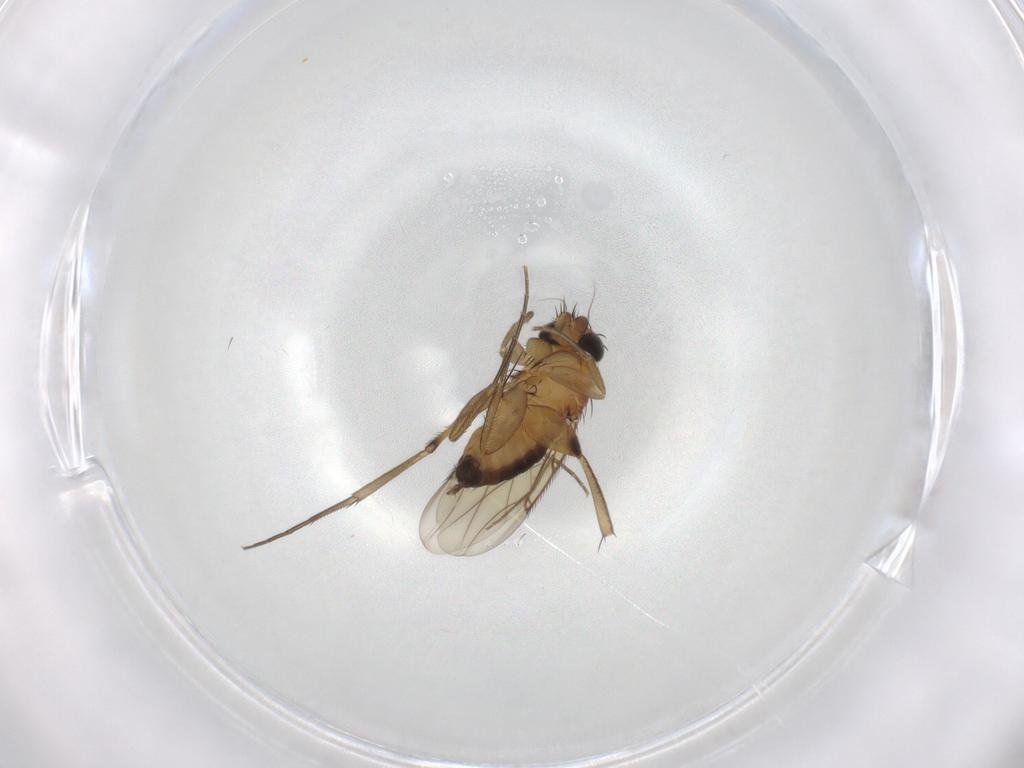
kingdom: Animalia
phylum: Arthropoda
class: Insecta
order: Diptera
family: Phoridae
